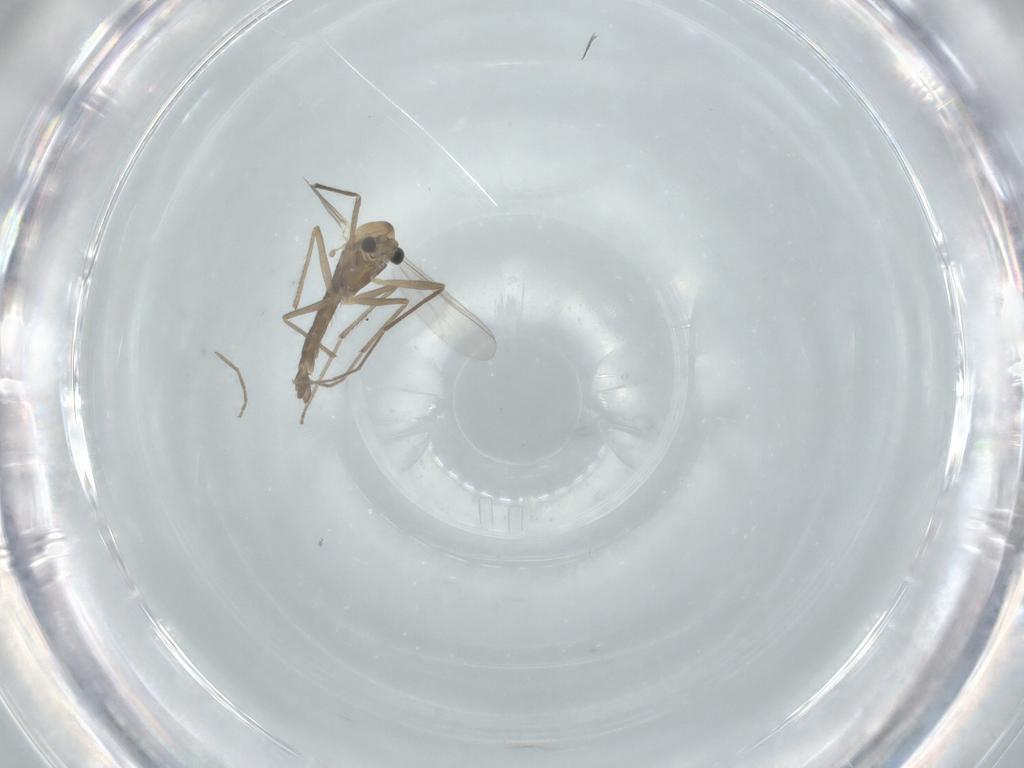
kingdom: Animalia
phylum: Arthropoda
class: Insecta
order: Diptera
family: Chironomidae
